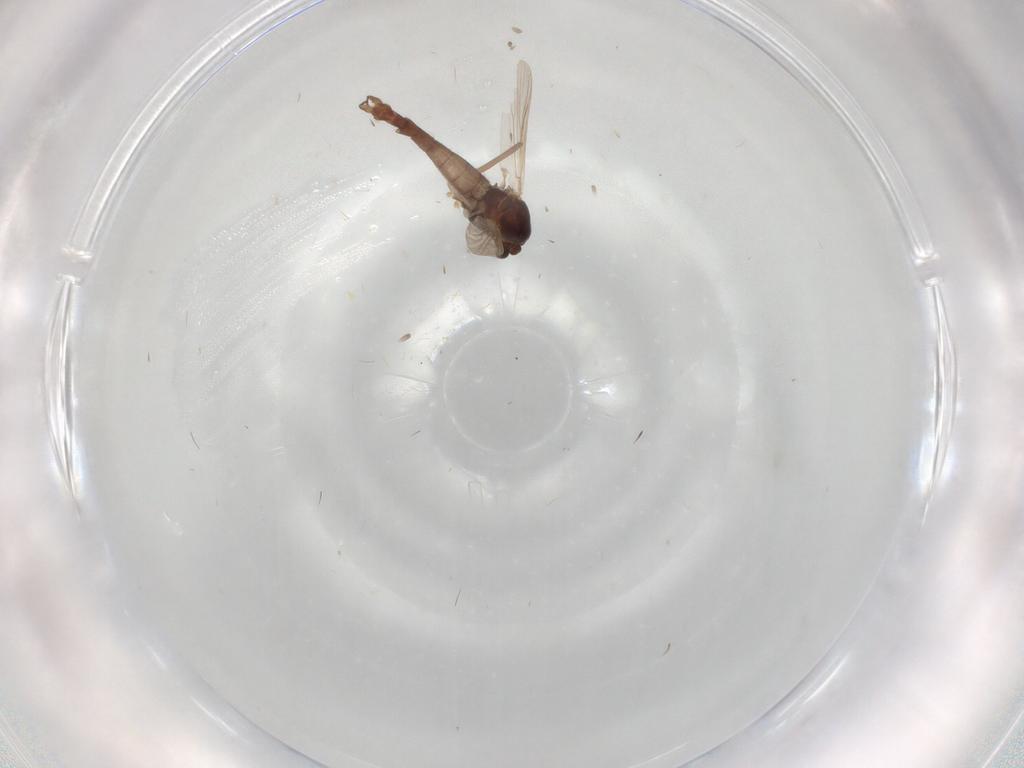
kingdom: Animalia
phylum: Arthropoda
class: Insecta
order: Diptera
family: Chironomidae
